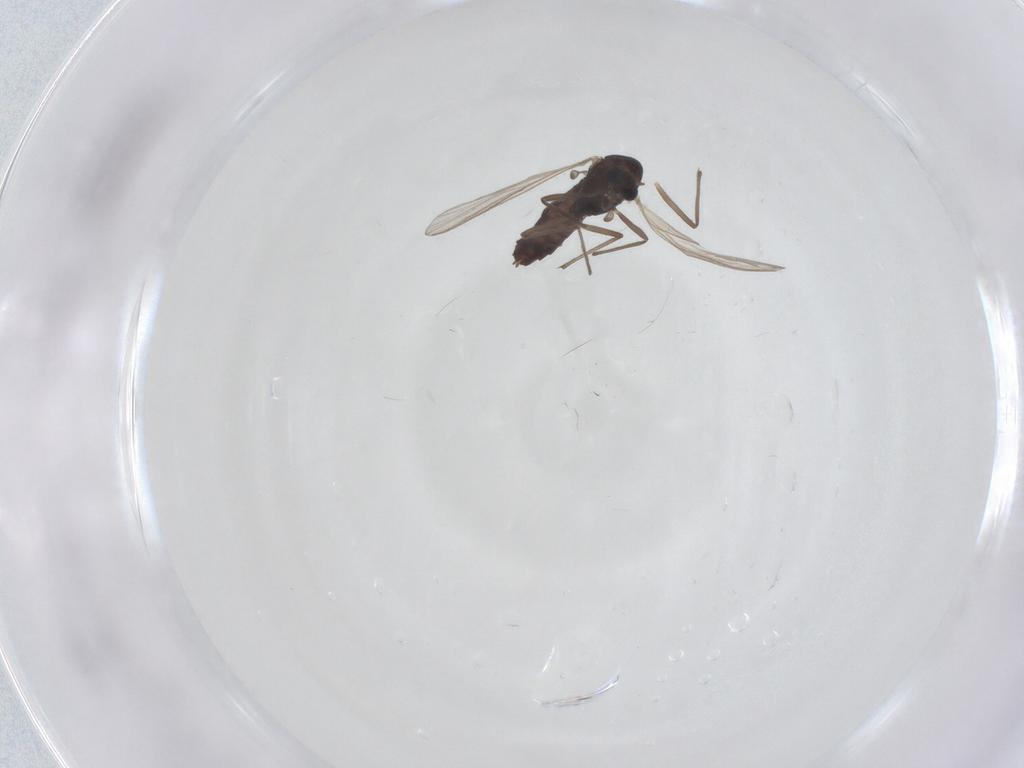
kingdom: Animalia
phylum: Arthropoda
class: Insecta
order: Diptera
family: Chironomidae
